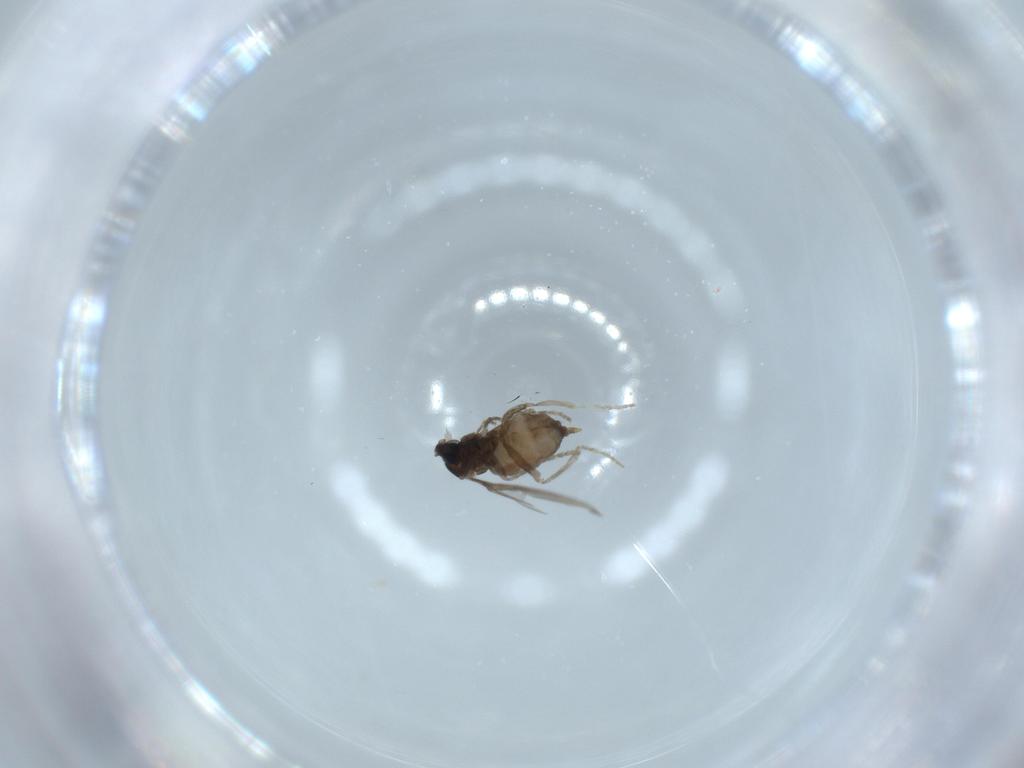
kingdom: Animalia
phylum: Arthropoda
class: Insecta
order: Diptera
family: Cecidomyiidae
